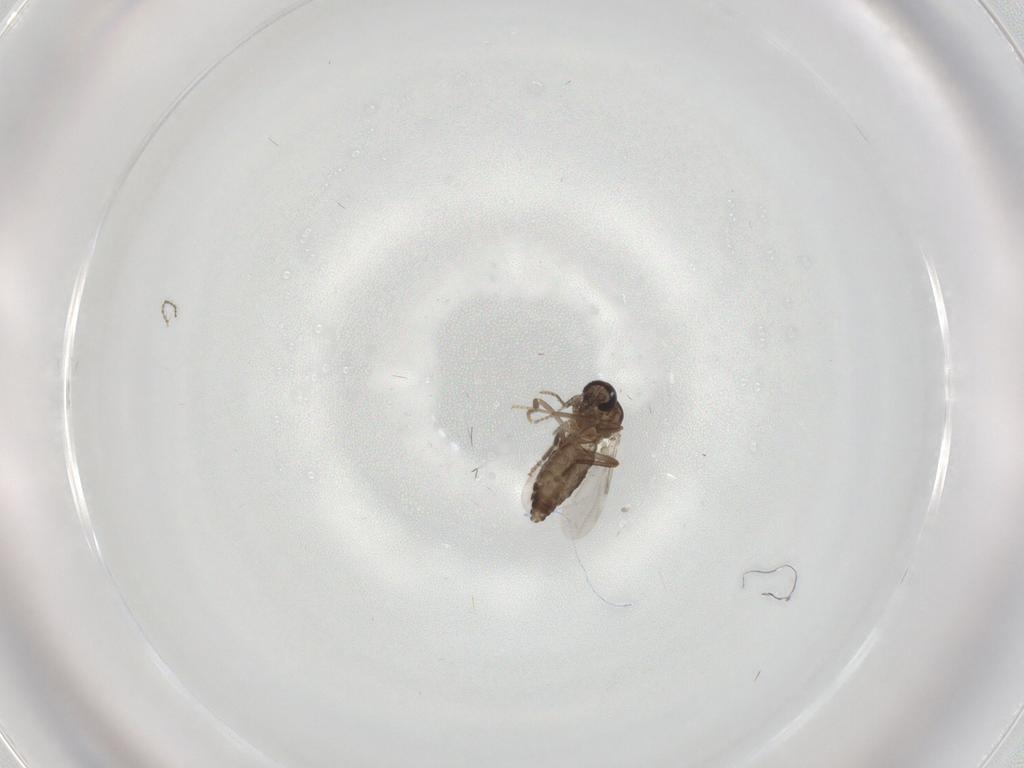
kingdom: Animalia
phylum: Arthropoda
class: Insecta
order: Diptera
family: Ceratopogonidae
